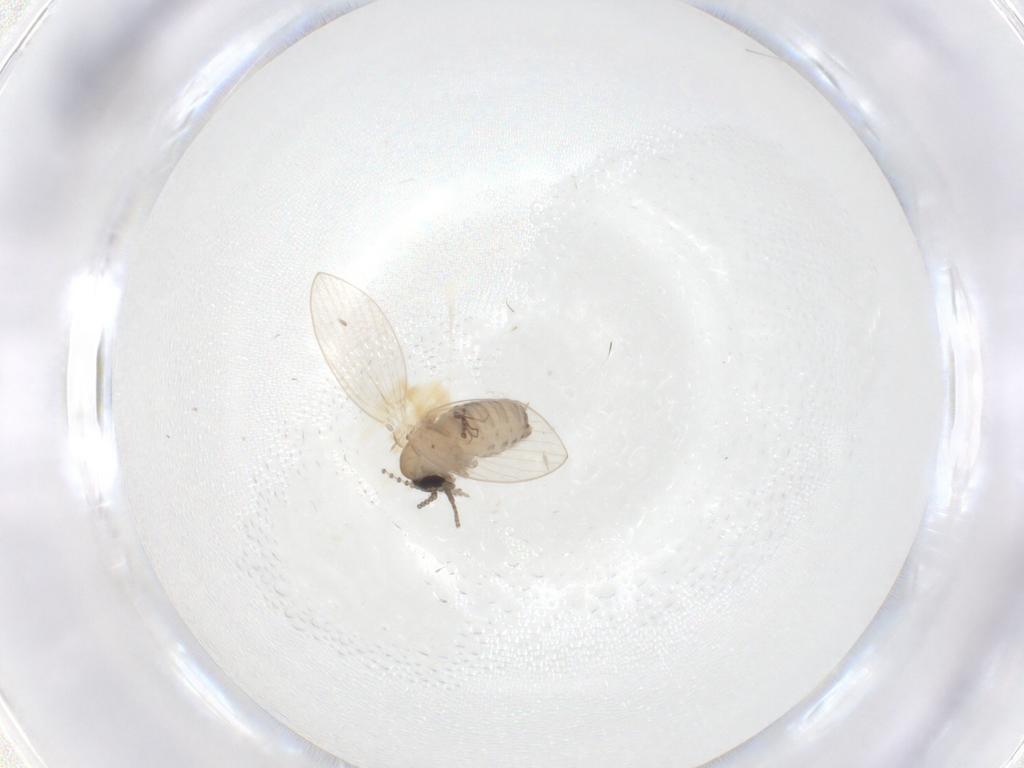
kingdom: Animalia
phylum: Arthropoda
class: Insecta
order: Diptera
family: Psychodidae
